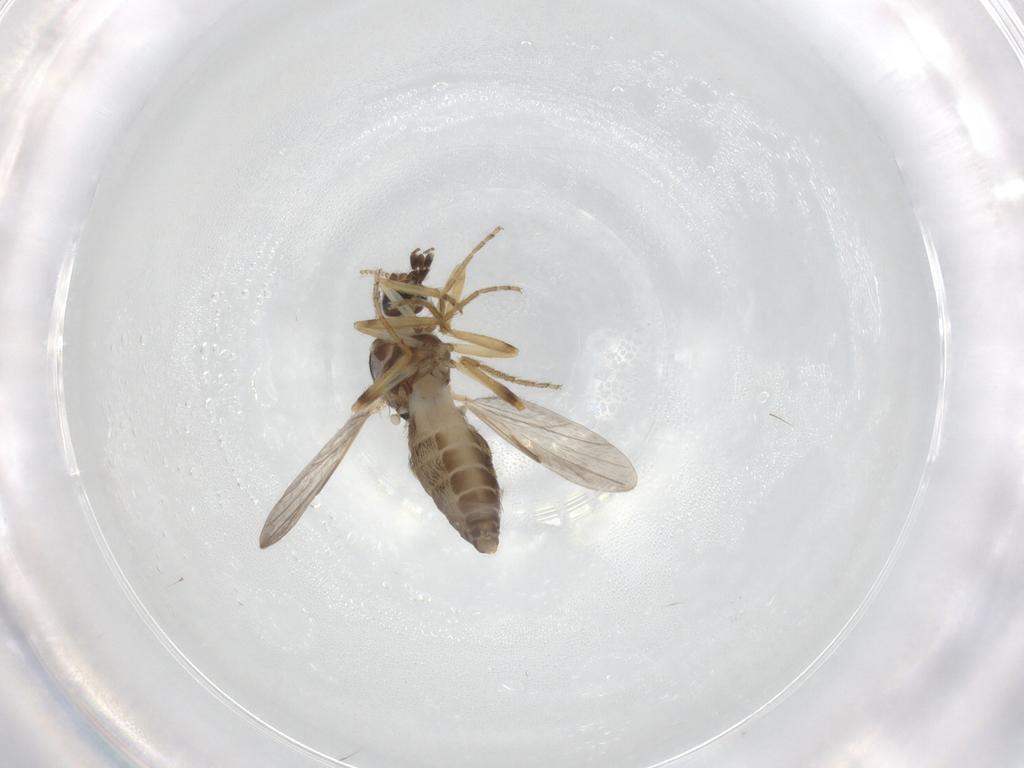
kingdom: Animalia
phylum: Arthropoda
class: Insecta
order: Diptera
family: Ceratopogonidae
